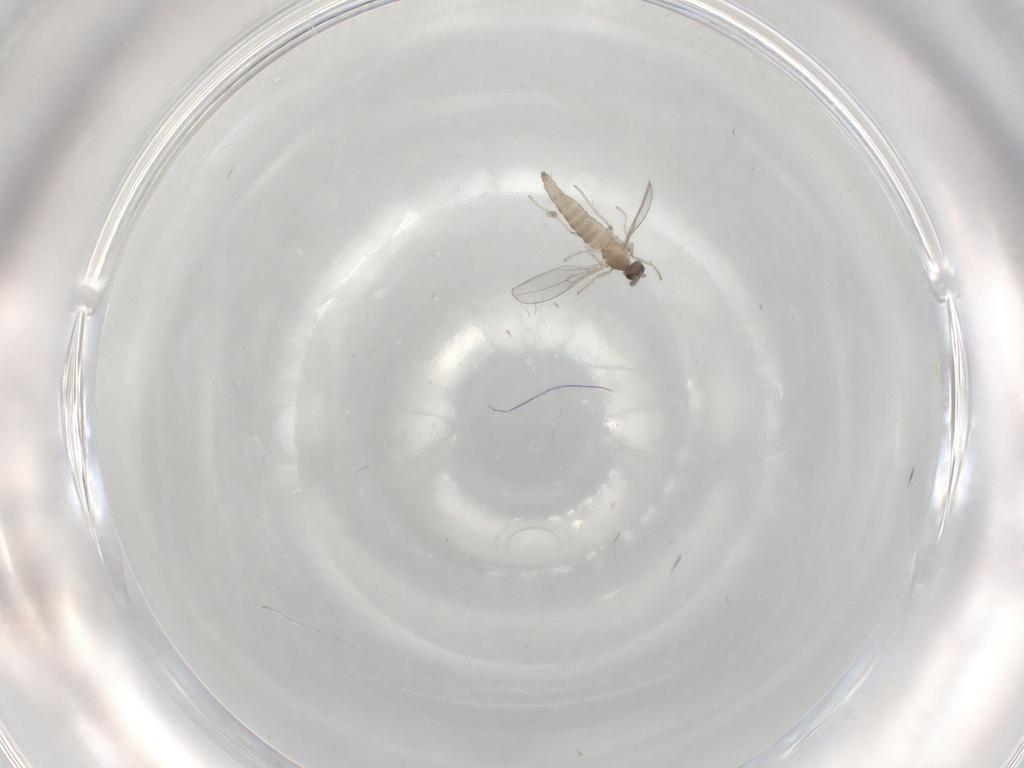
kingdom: Animalia
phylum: Arthropoda
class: Insecta
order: Diptera
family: Cecidomyiidae
